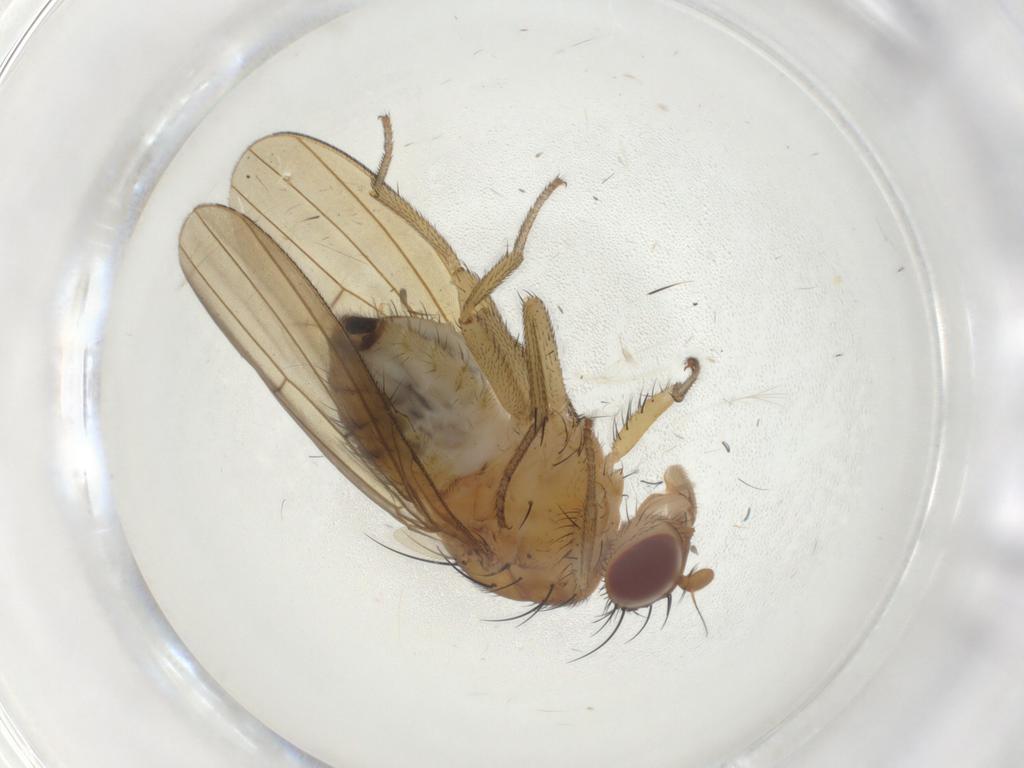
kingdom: Animalia
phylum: Arthropoda
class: Insecta
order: Diptera
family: Chironomidae
